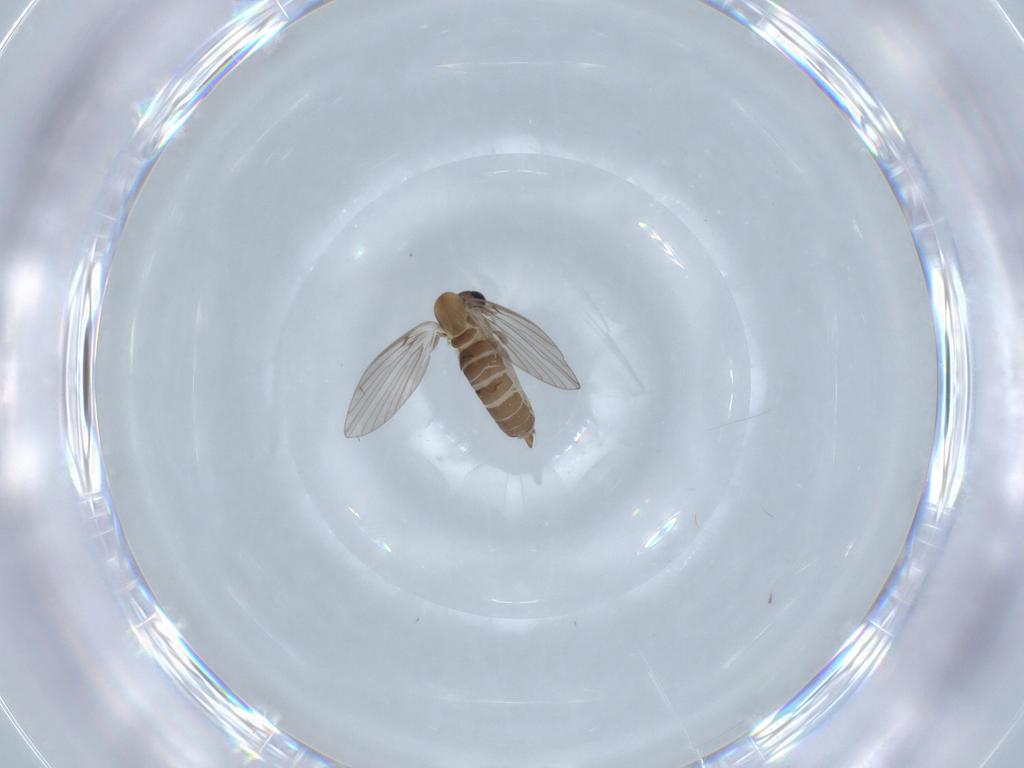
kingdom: Animalia
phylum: Arthropoda
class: Insecta
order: Diptera
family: Psychodidae
